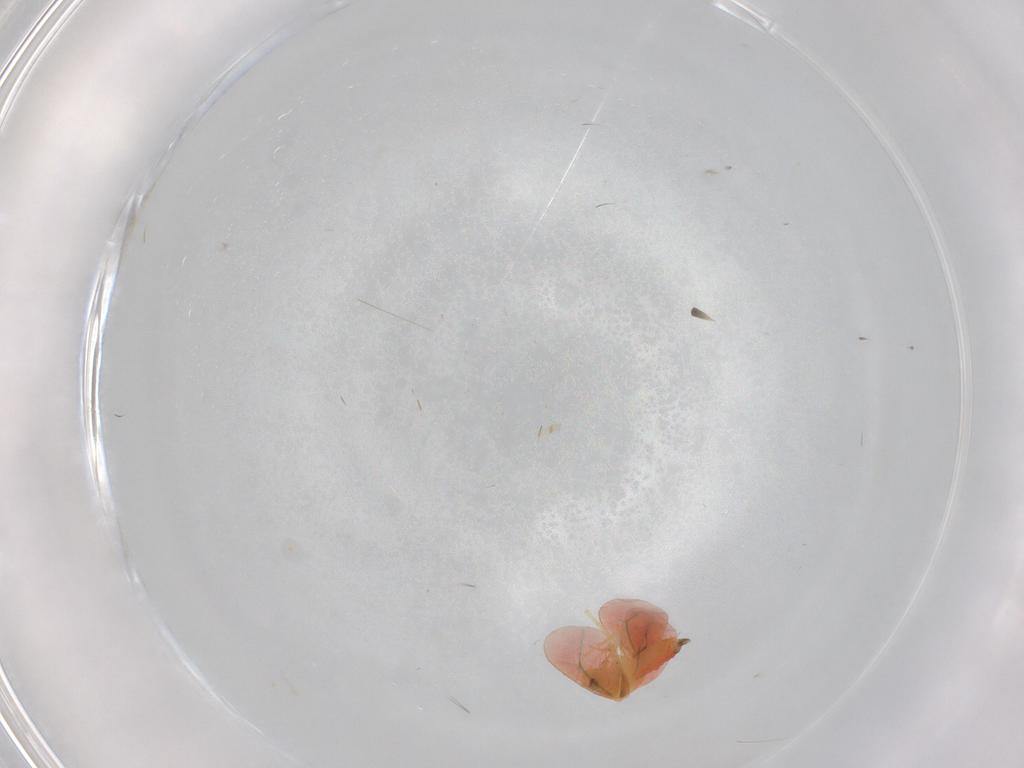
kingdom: Animalia
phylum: Arthropoda
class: Insecta
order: Hemiptera
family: Aleyrodidae
